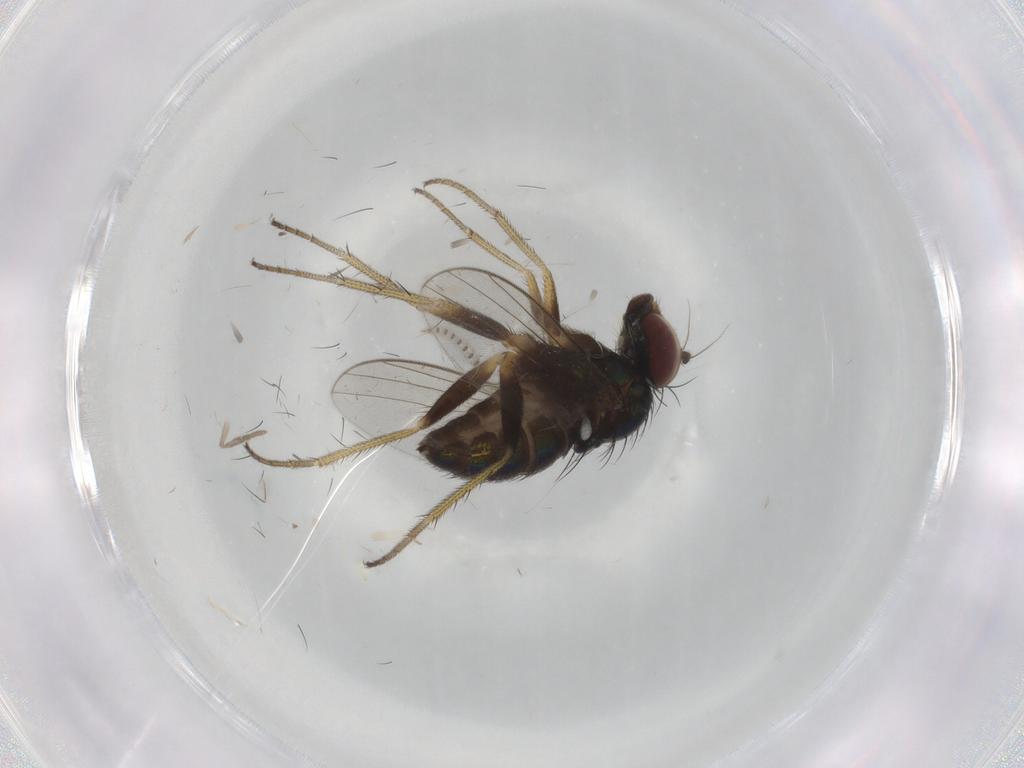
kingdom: Animalia
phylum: Arthropoda
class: Insecta
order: Diptera
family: Dolichopodidae
